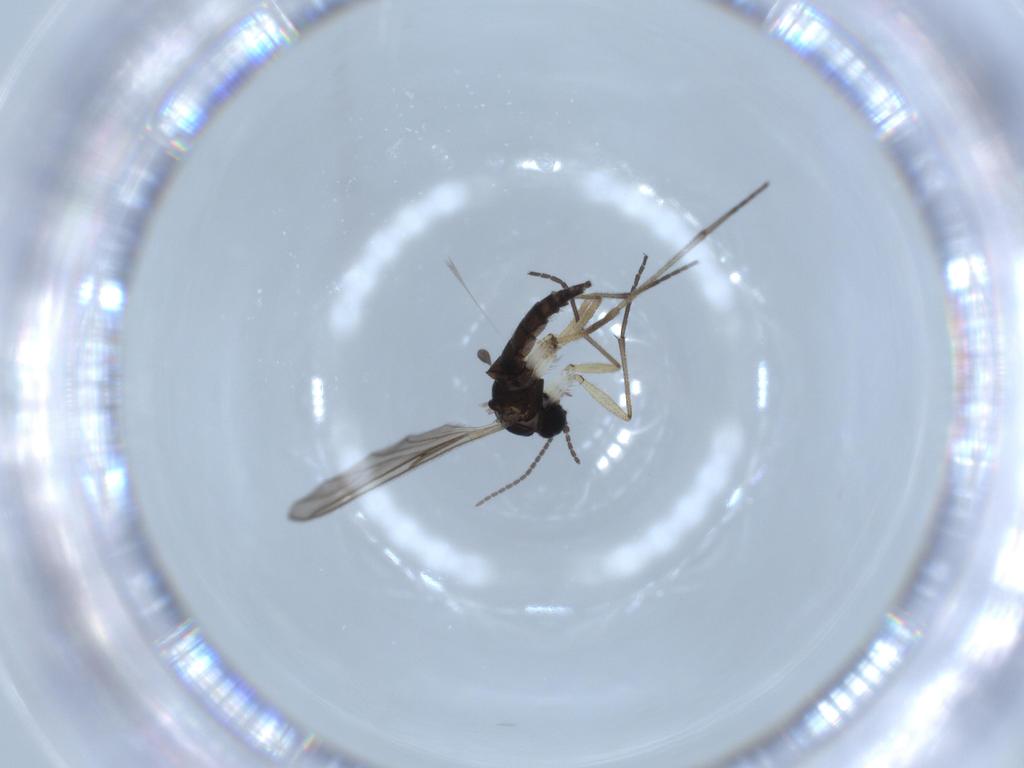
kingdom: Animalia
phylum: Arthropoda
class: Insecta
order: Diptera
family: Sciaridae
